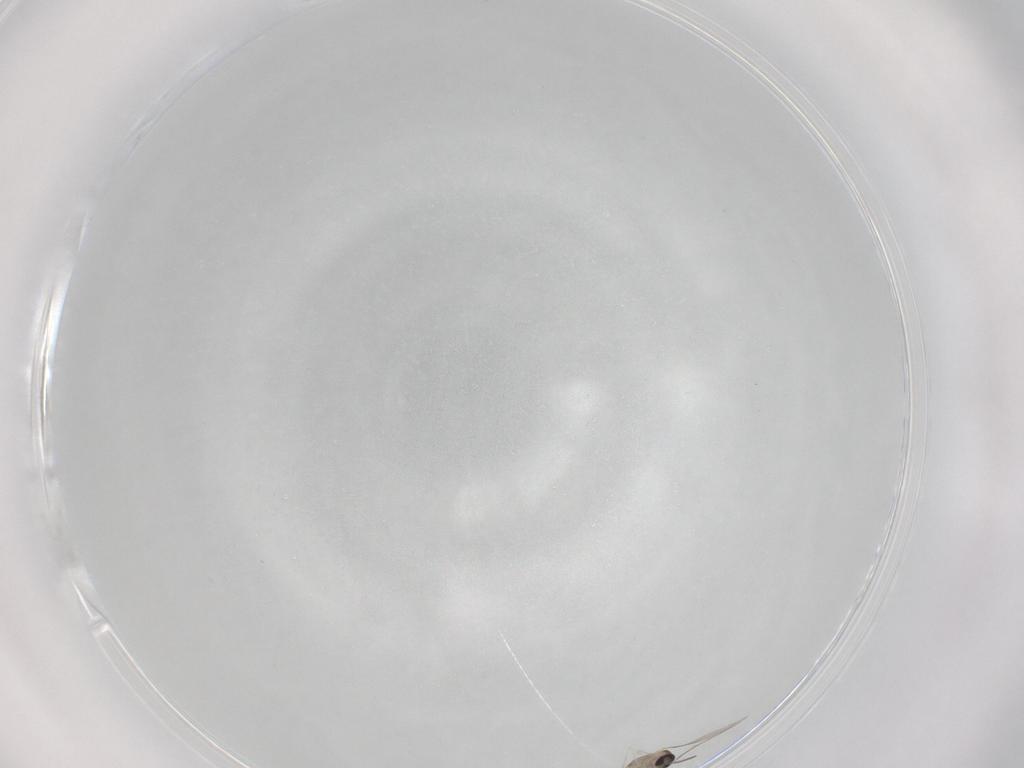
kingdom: Animalia
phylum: Arthropoda
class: Insecta
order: Diptera
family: Cecidomyiidae
